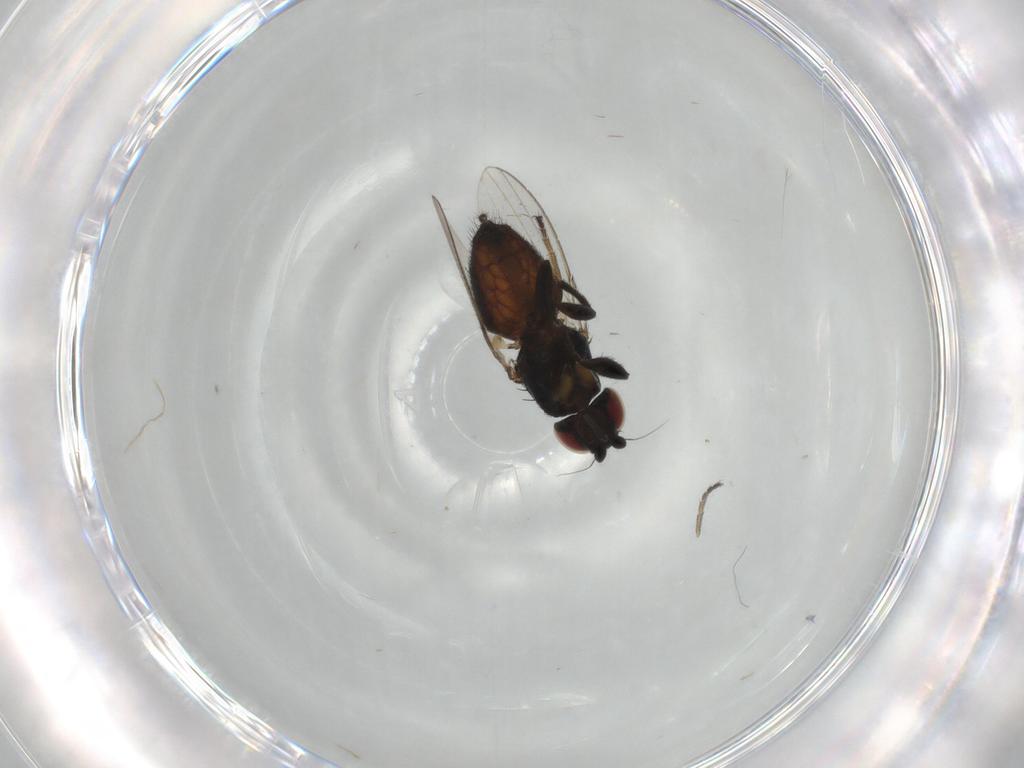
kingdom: Animalia
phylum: Arthropoda
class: Insecta
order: Diptera
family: Milichiidae
